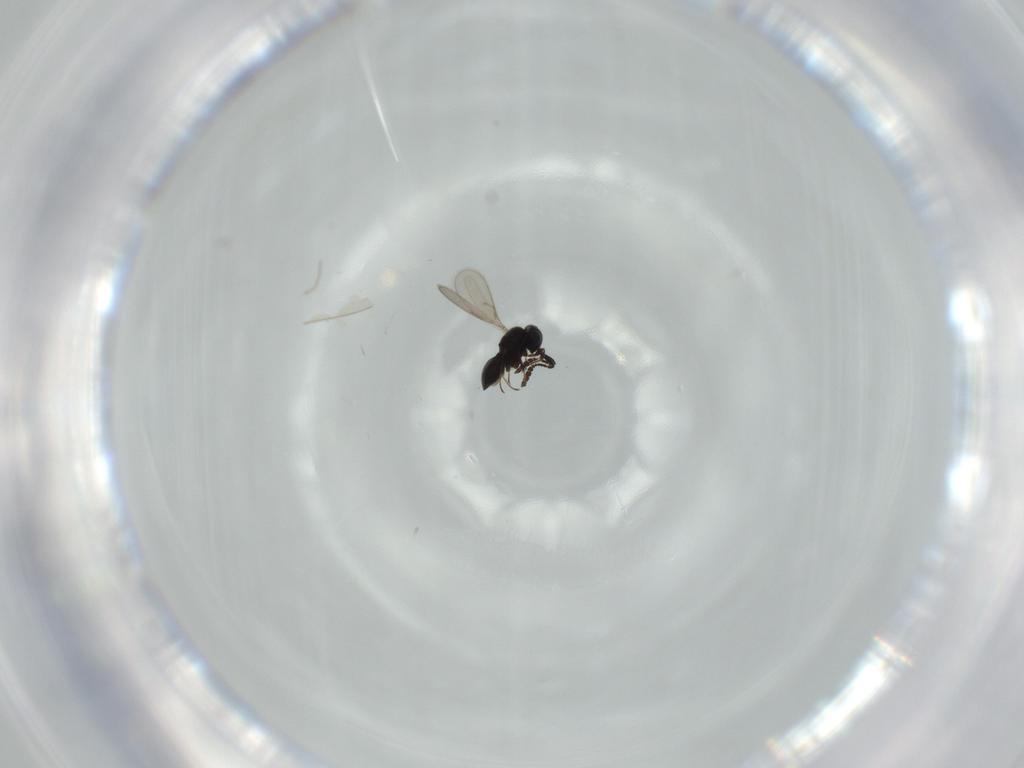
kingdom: Animalia
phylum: Arthropoda
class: Insecta
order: Hymenoptera
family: Scelionidae
